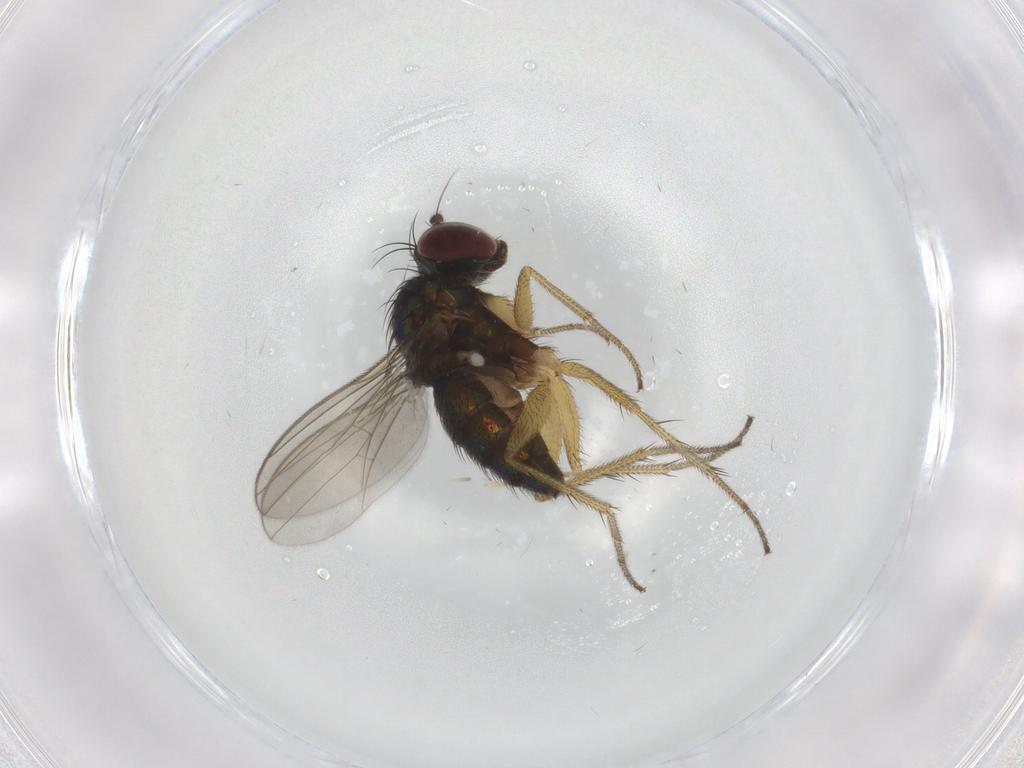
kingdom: Animalia
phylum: Arthropoda
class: Insecta
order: Diptera
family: Dolichopodidae
